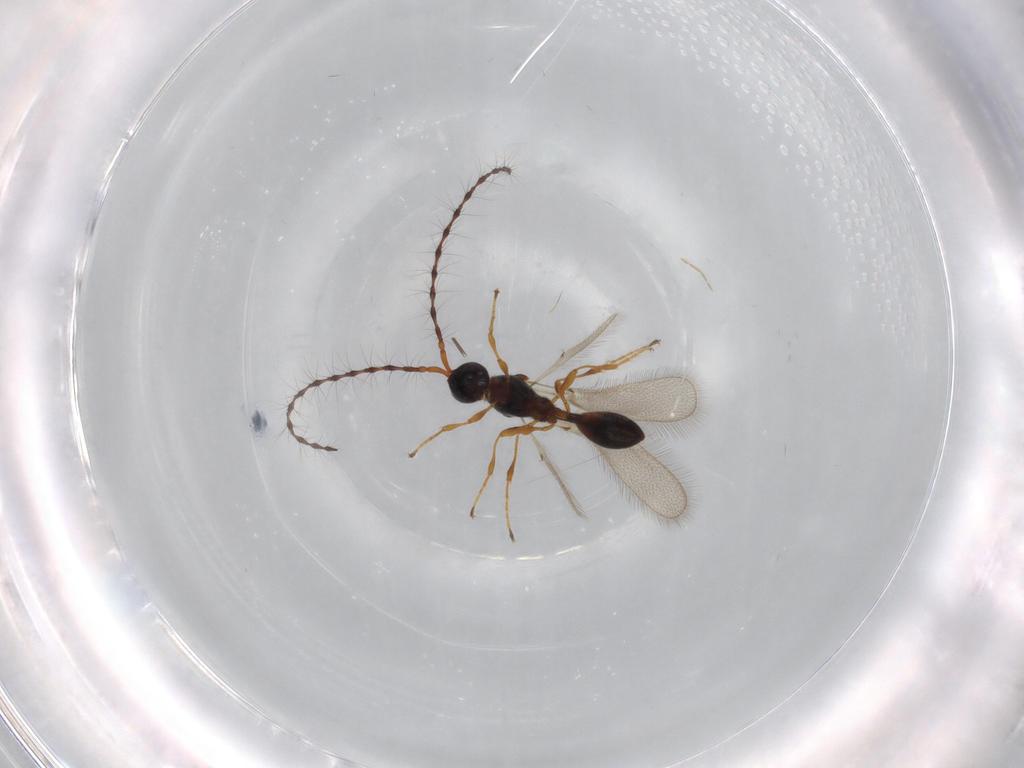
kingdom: Animalia
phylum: Arthropoda
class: Insecta
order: Hymenoptera
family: Diapriidae
